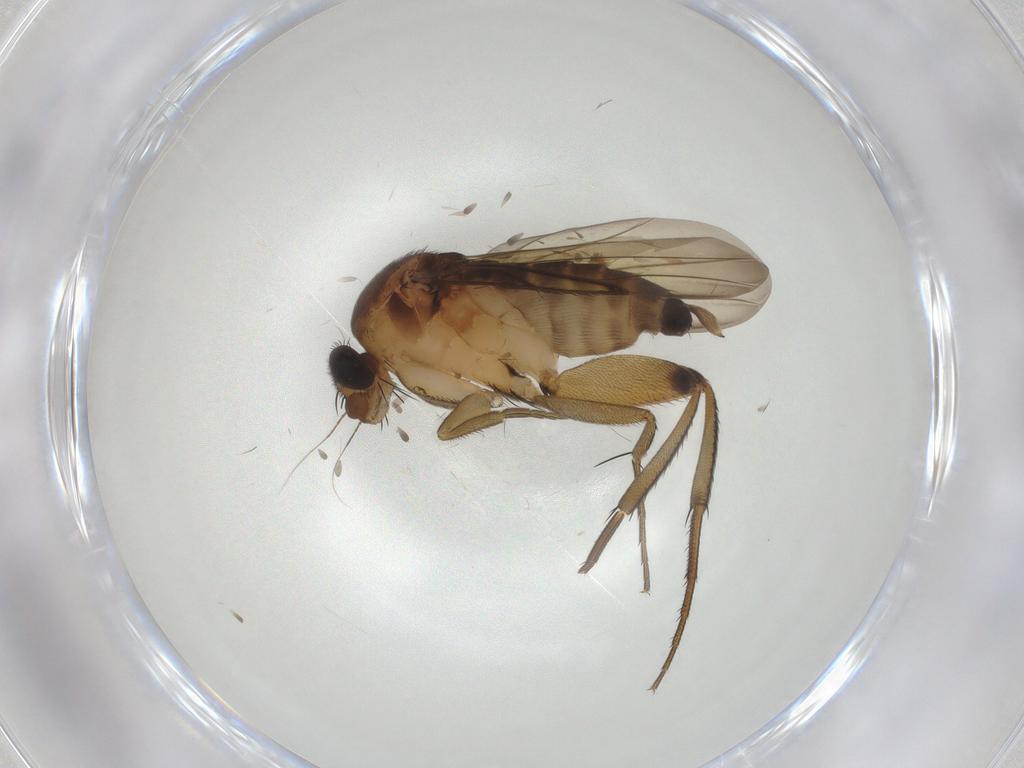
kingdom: Animalia
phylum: Arthropoda
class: Insecta
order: Diptera
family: Phoridae
